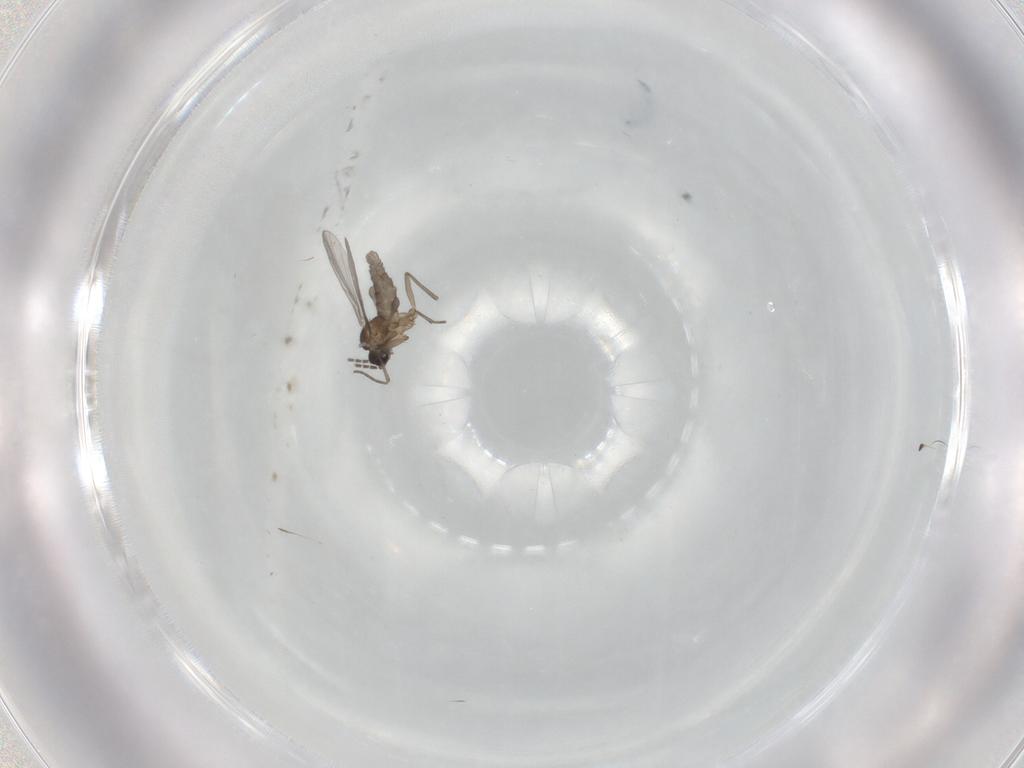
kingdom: Animalia
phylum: Arthropoda
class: Insecta
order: Diptera
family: Sciaridae
